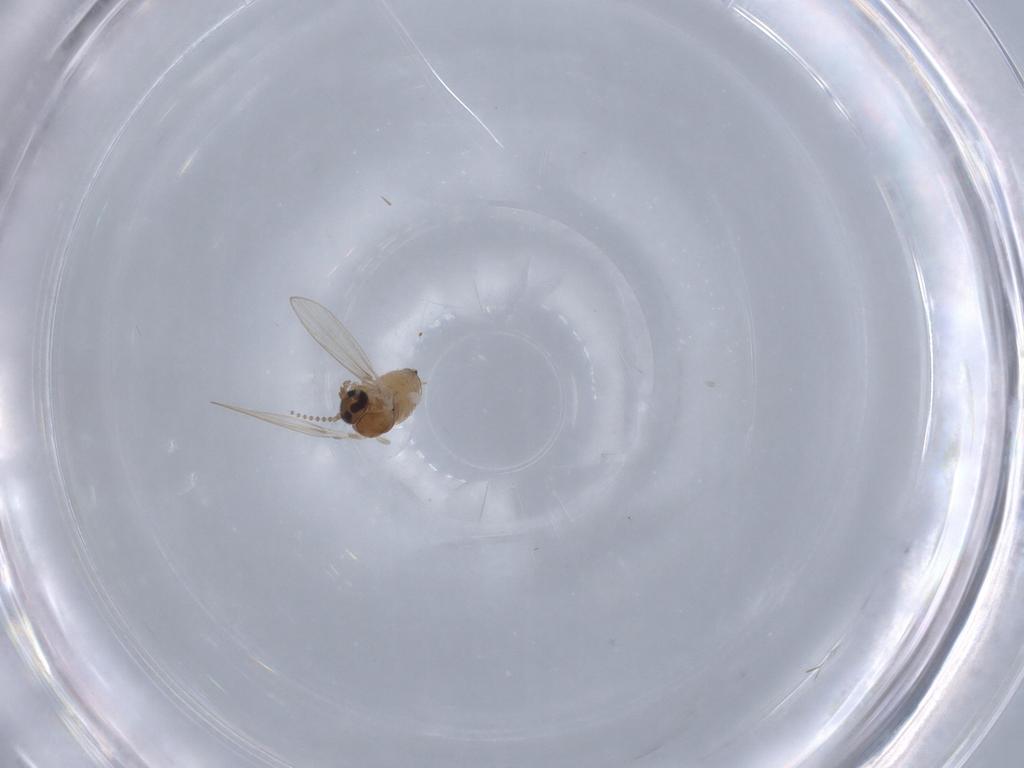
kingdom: Animalia
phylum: Arthropoda
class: Insecta
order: Diptera
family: Psychodidae
